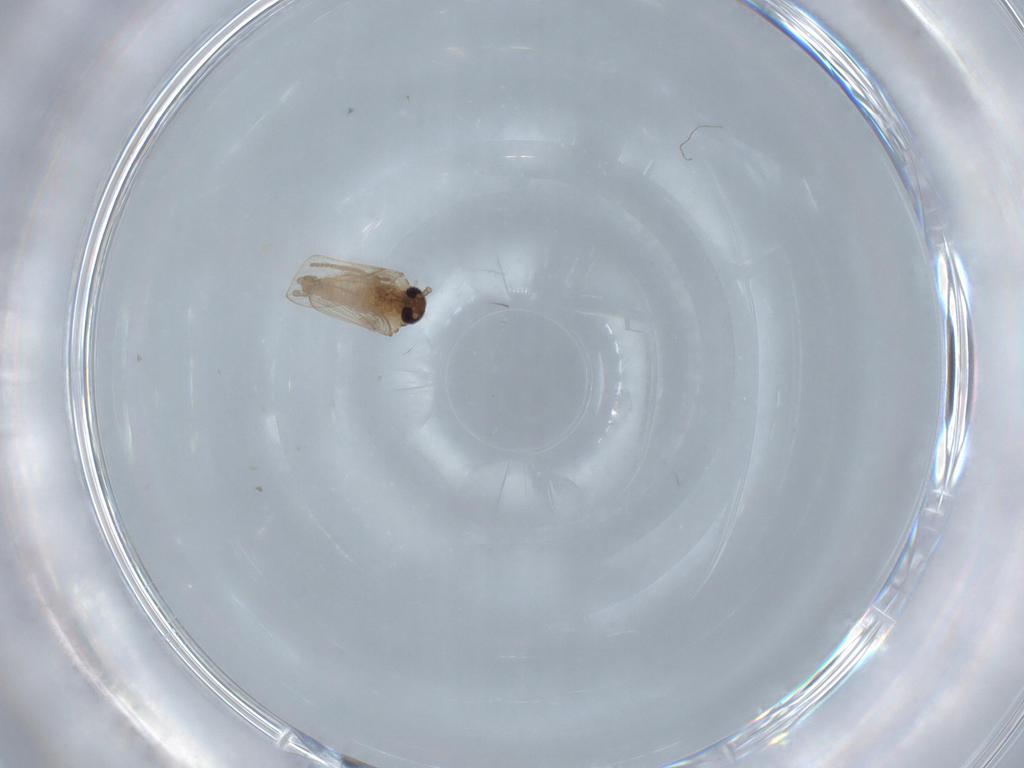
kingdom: Animalia
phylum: Arthropoda
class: Insecta
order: Diptera
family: Psychodidae
